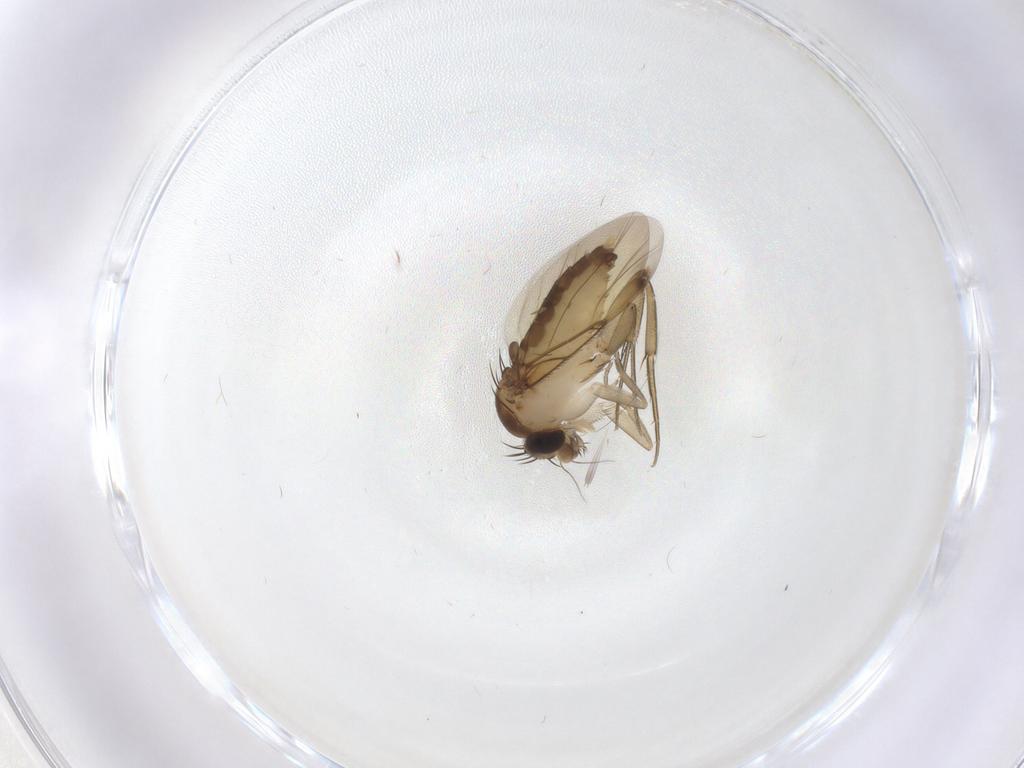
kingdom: Animalia
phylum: Arthropoda
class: Insecta
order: Diptera
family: Phoridae
